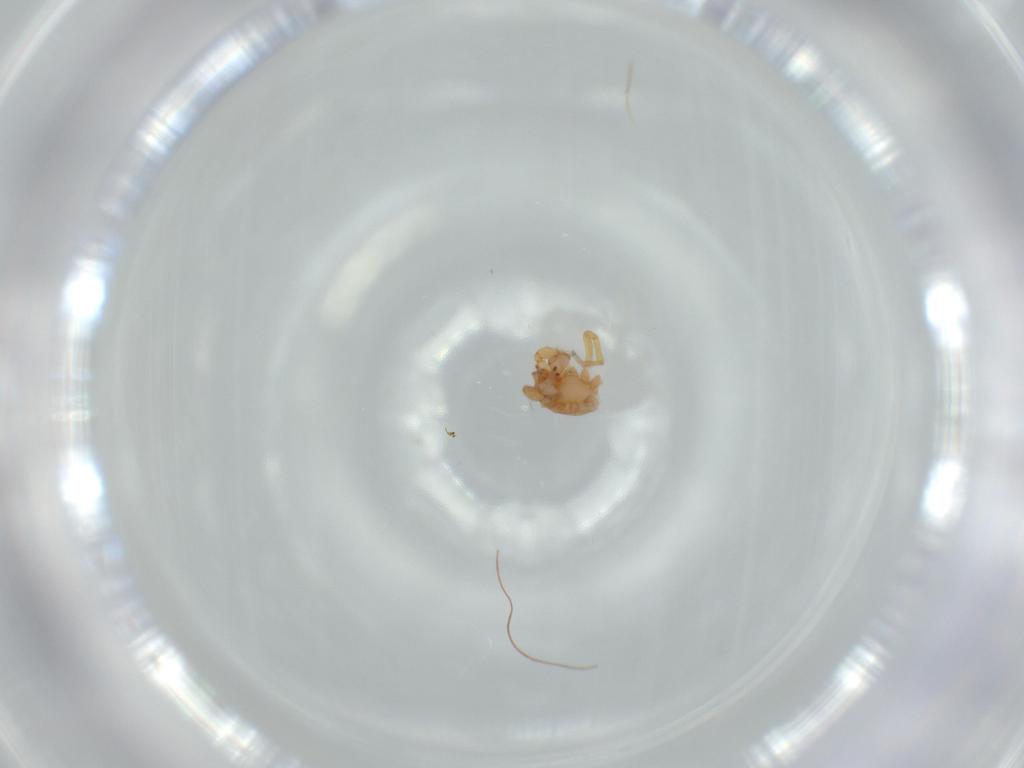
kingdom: Animalia
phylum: Arthropoda
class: Arachnida
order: Araneae
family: Oonopidae
